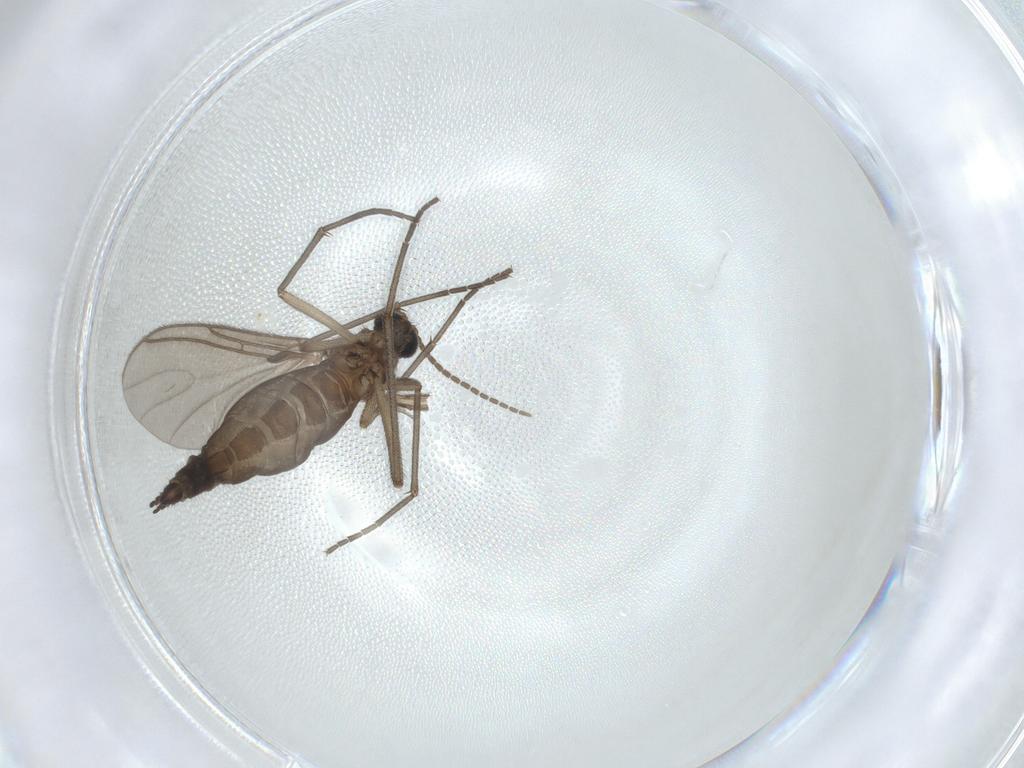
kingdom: Animalia
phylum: Arthropoda
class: Insecta
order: Diptera
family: Sciaridae
